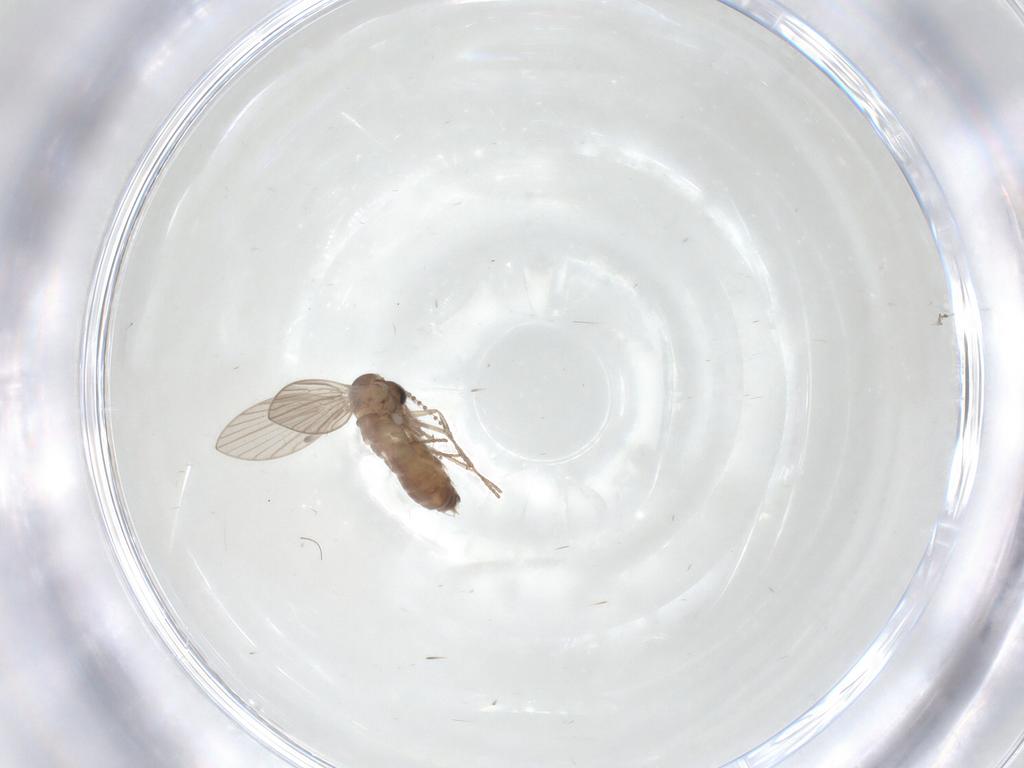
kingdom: Animalia
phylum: Arthropoda
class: Insecta
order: Diptera
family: Psychodidae
